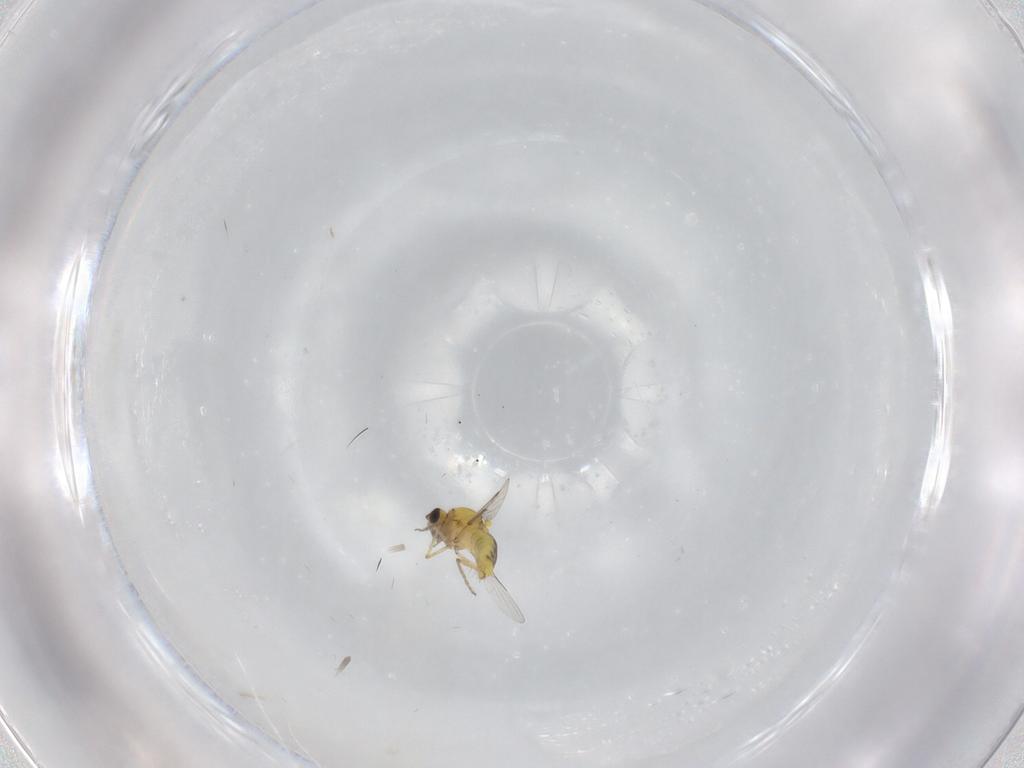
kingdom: Animalia
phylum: Arthropoda
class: Insecta
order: Diptera
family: Ceratopogonidae
